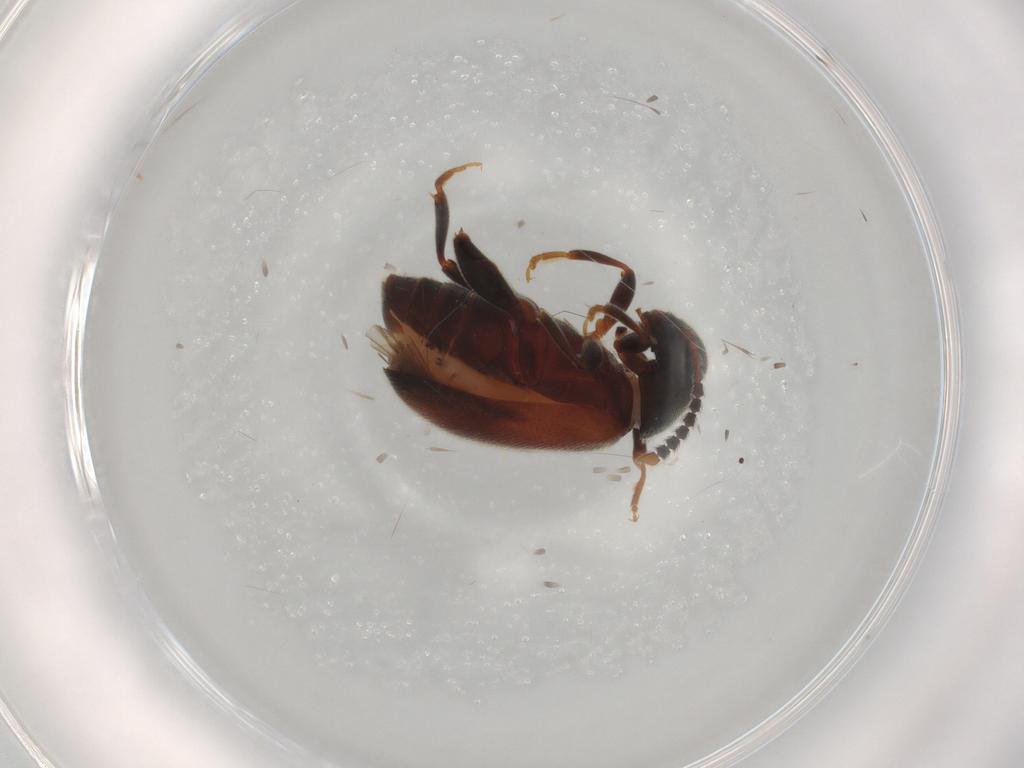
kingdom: Animalia
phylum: Arthropoda
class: Insecta
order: Coleoptera
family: Aderidae
